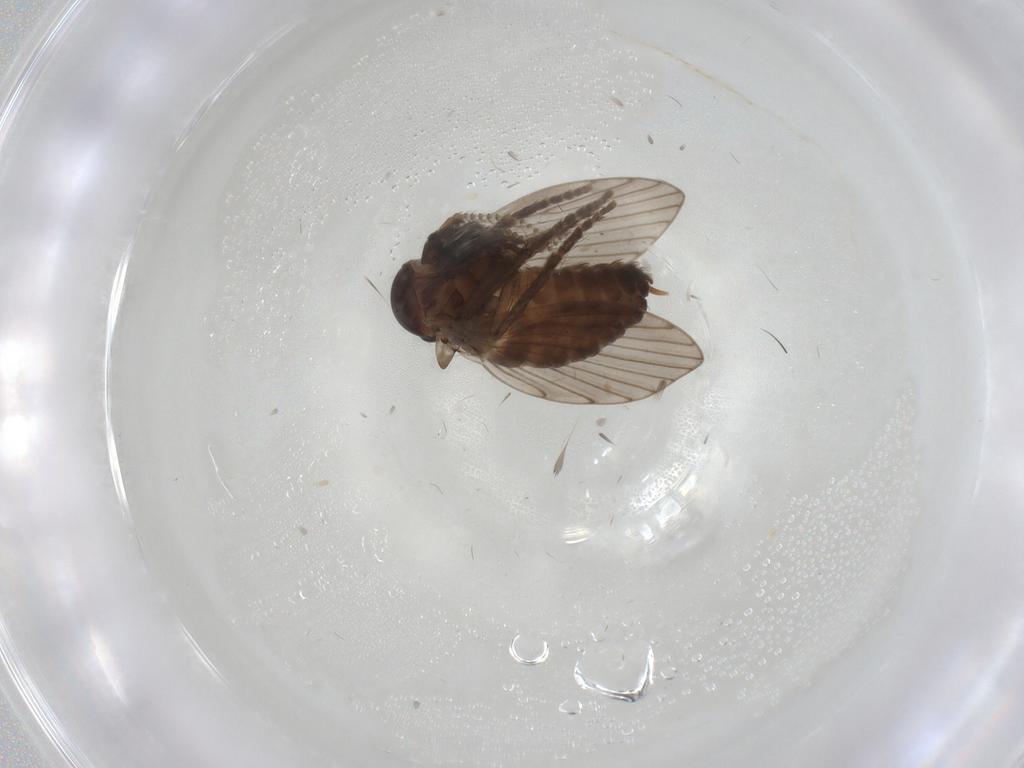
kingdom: Animalia
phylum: Arthropoda
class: Insecta
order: Diptera
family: Psychodidae
